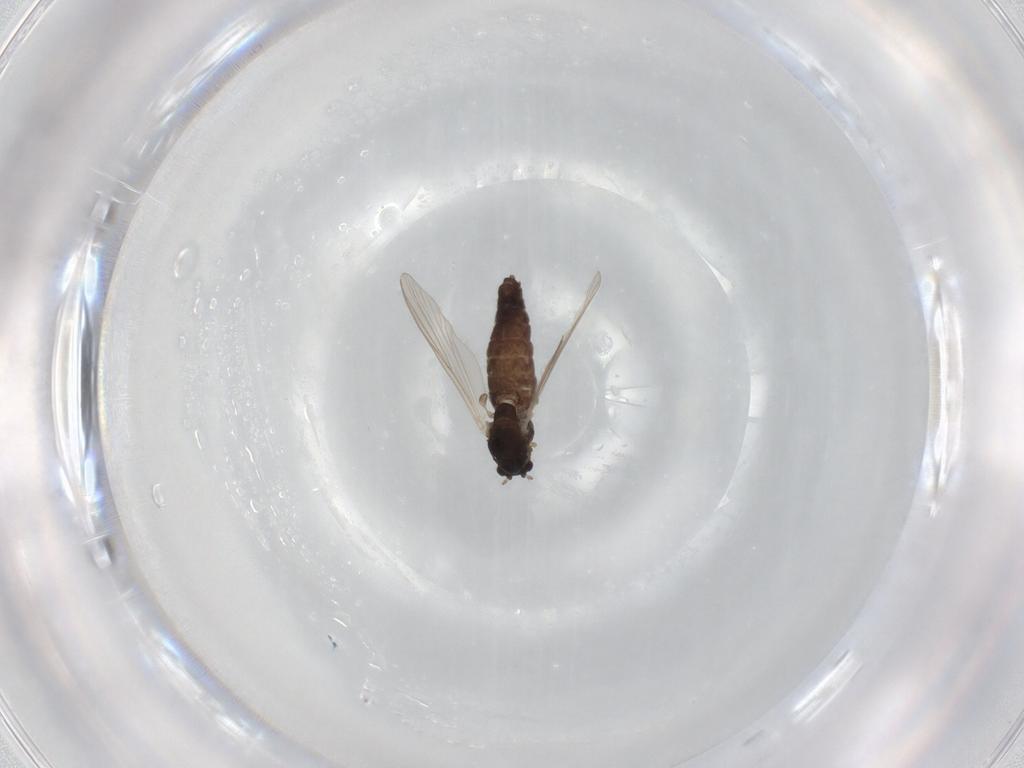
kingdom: Animalia
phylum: Arthropoda
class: Insecta
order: Diptera
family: Chironomidae
